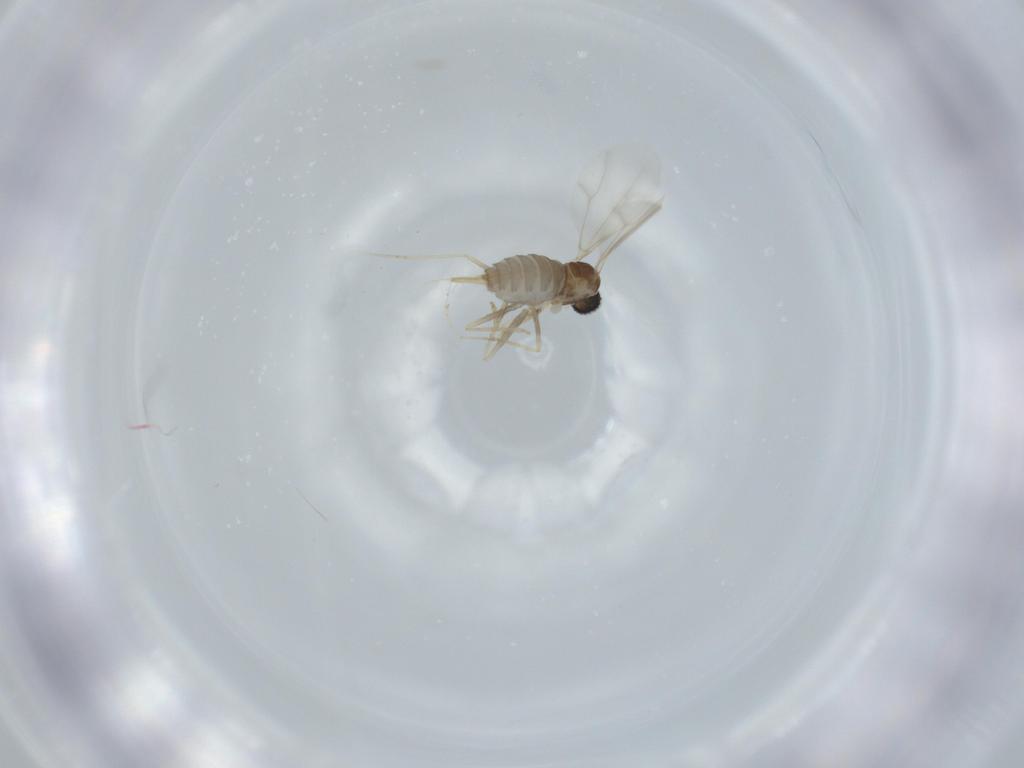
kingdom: Animalia
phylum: Arthropoda
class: Insecta
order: Diptera
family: Cecidomyiidae
